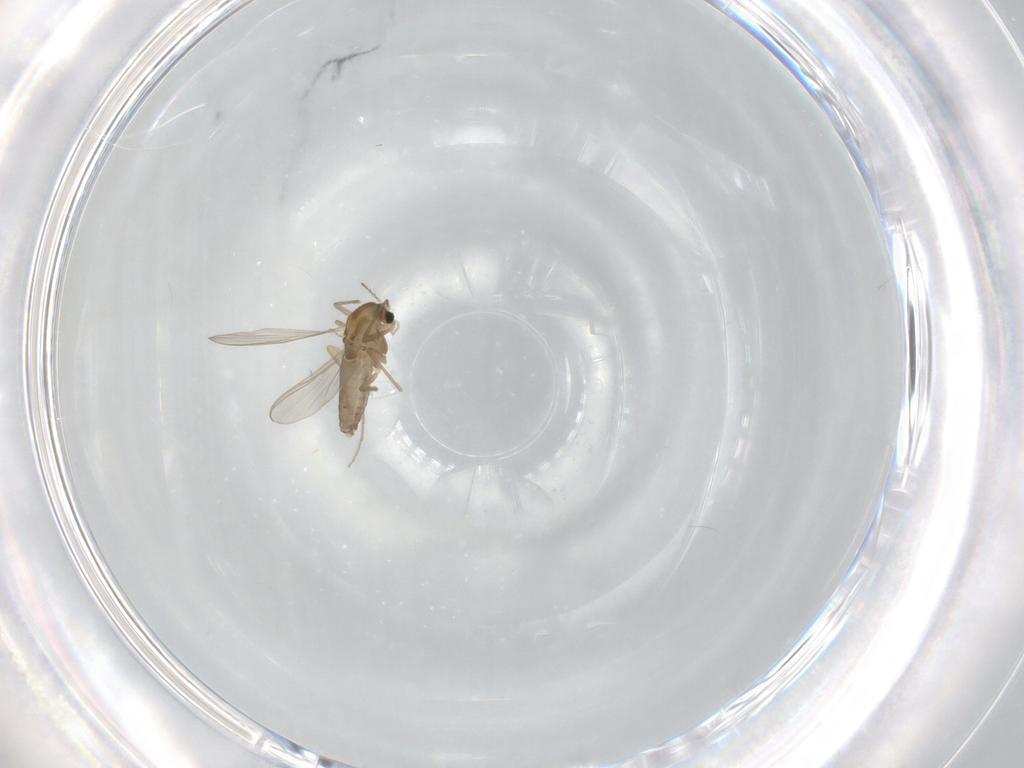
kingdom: Animalia
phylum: Arthropoda
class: Insecta
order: Diptera
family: Chironomidae
